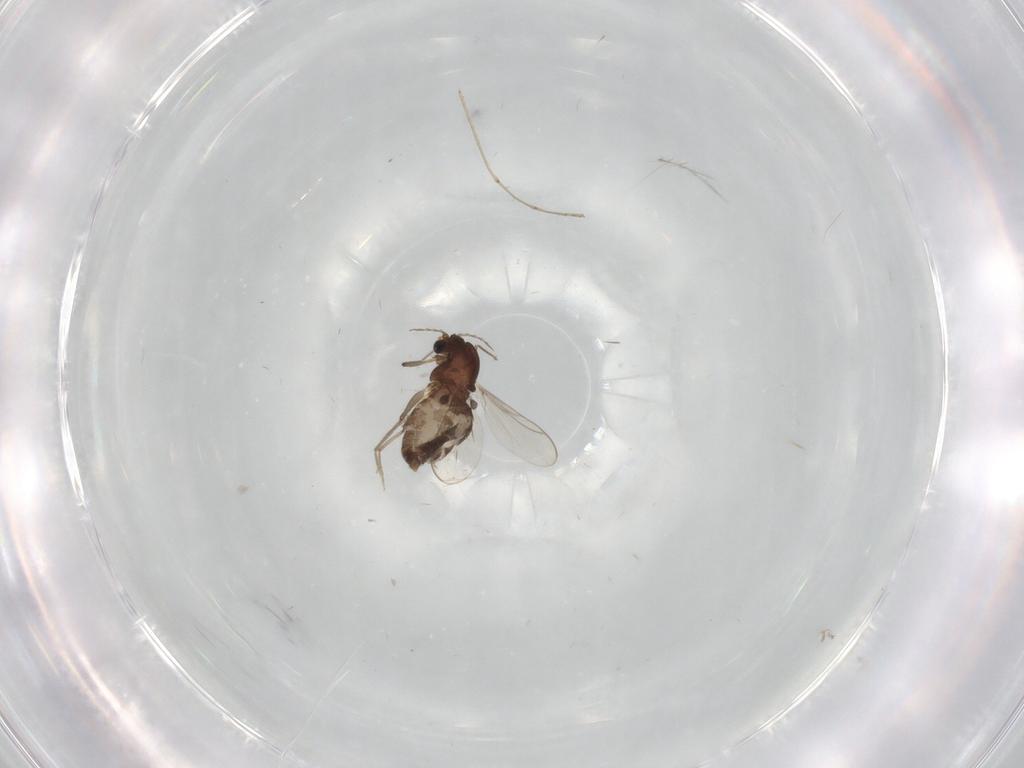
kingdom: Animalia
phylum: Arthropoda
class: Insecta
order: Diptera
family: Chironomidae
